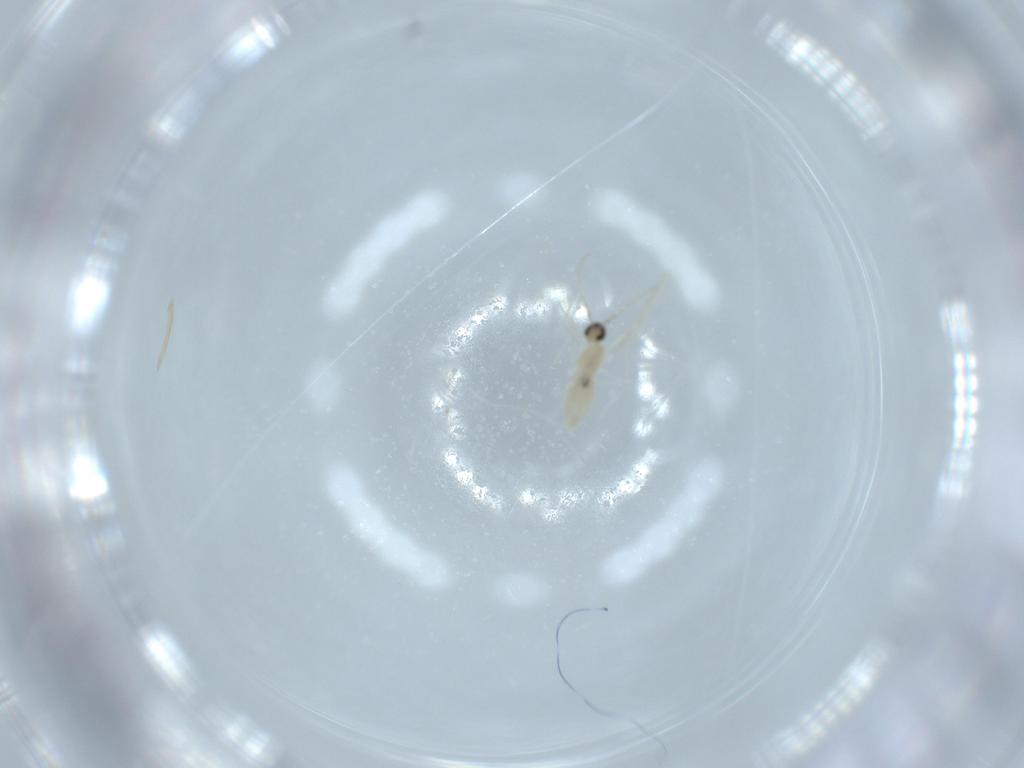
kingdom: Animalia
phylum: Arthropoda
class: Insecta
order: Diptera
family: Cecidomyiidae
